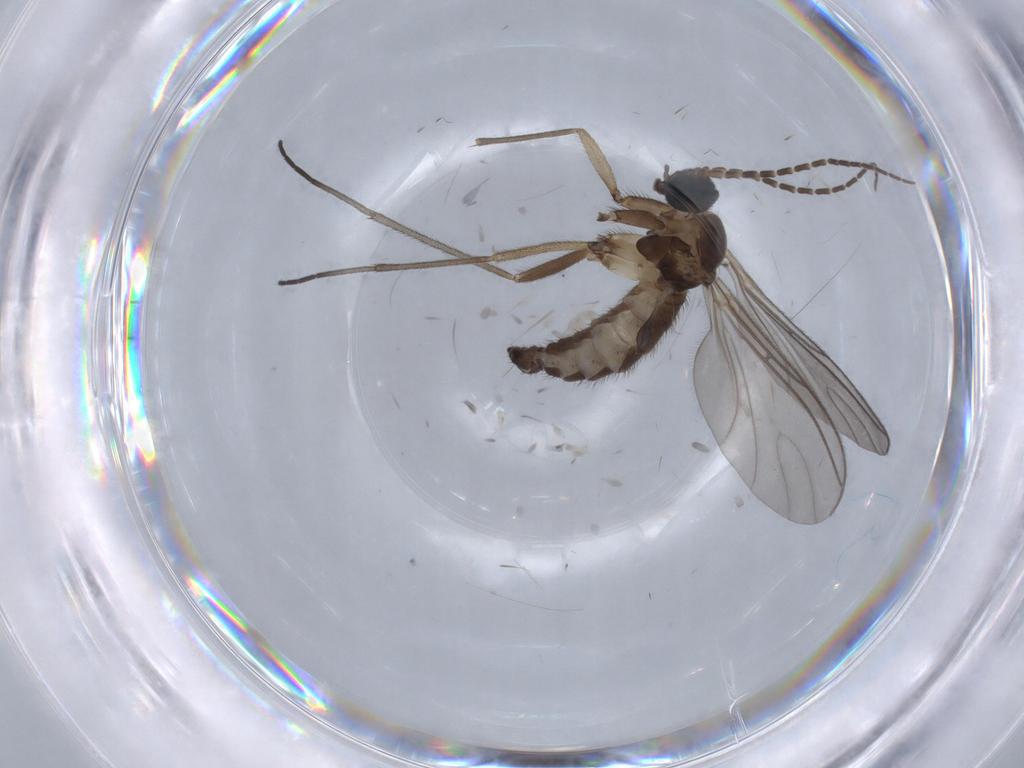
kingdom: Animalia
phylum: Arthropoda
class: Insecta
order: Diptera
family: Sciaridae
